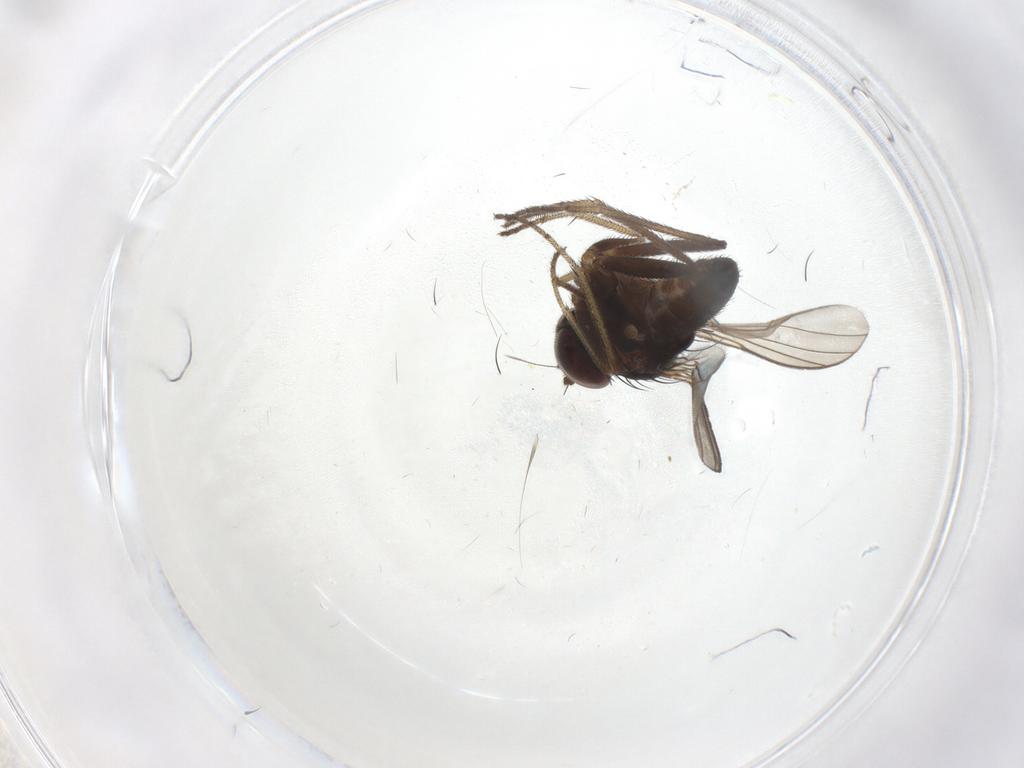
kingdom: Animalia
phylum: Arthropoda
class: Insecta
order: Diptera
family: Dolichopodidae
